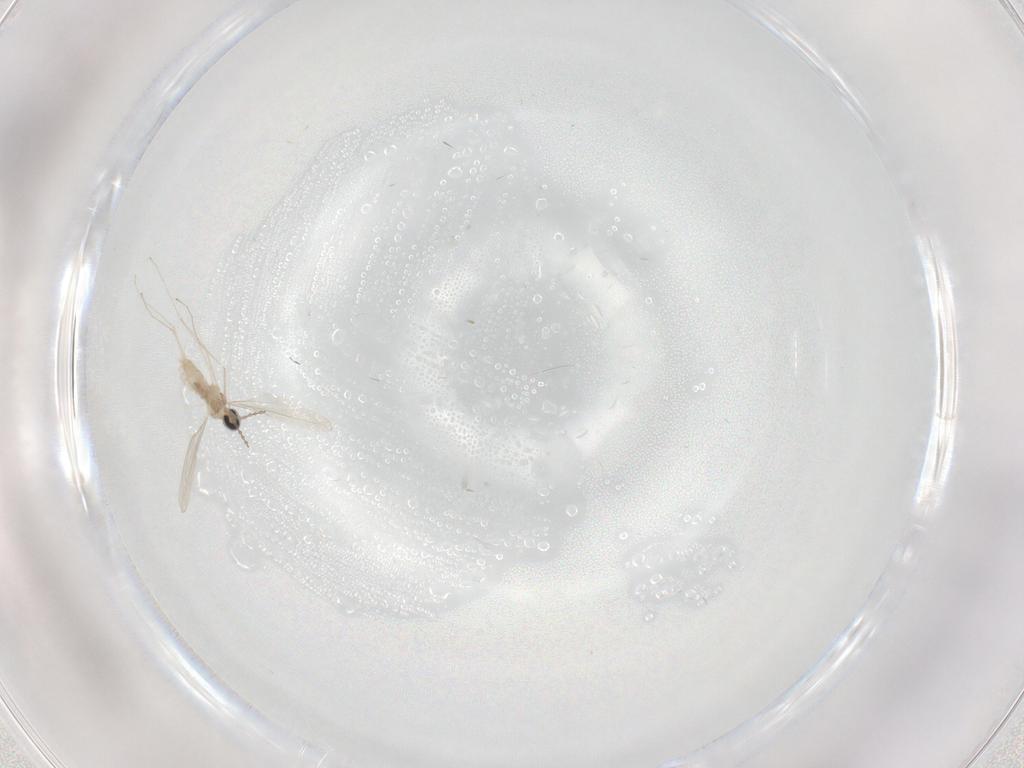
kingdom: Animalia
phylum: Arthropoda
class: Insecta
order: Diptera
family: Cecidomyiidae
